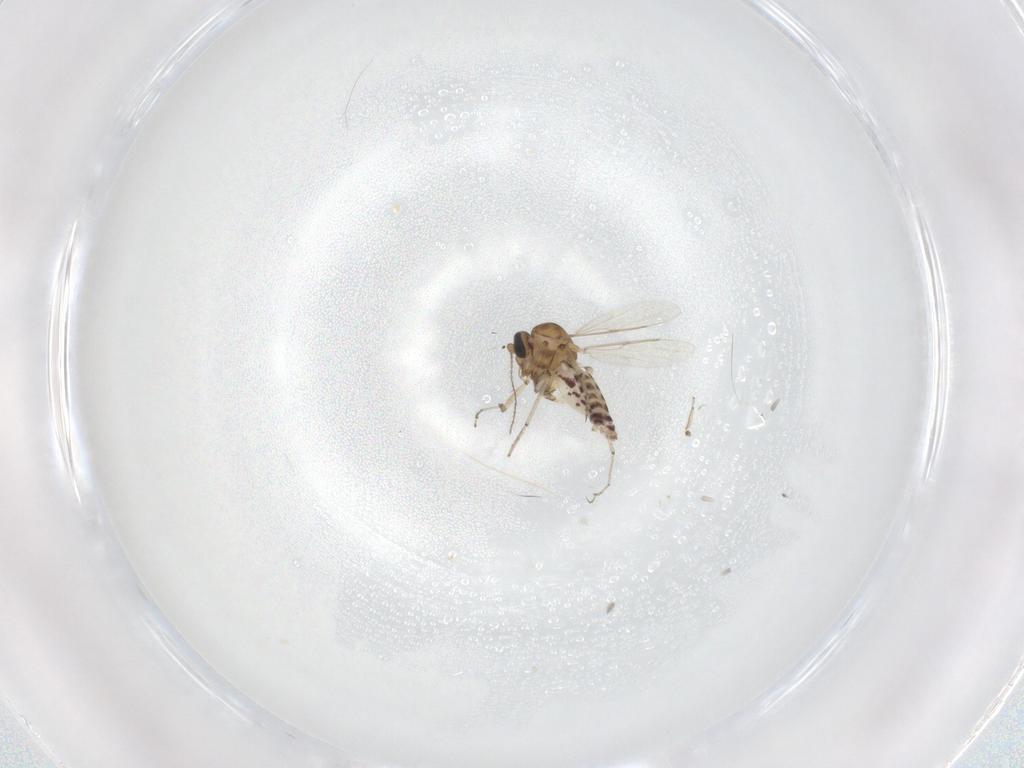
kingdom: Animalia
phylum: Arthropoda
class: Insecta
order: Diptera
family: Ceratopogonidae
